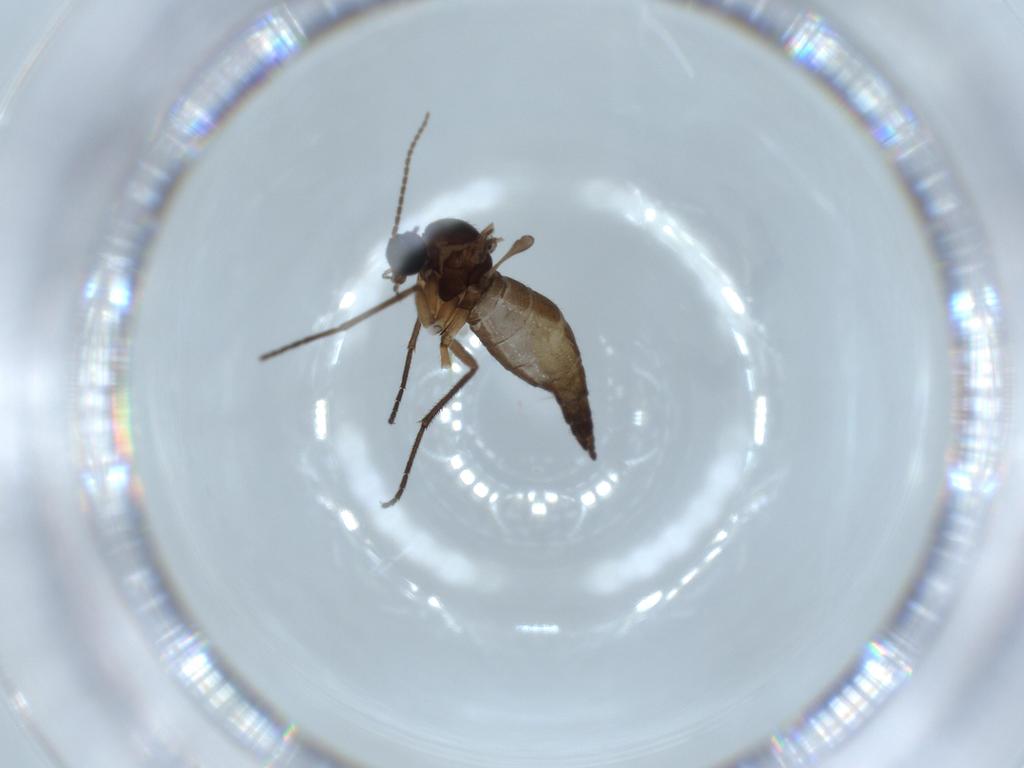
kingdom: Animalia
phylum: Arthropoda
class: Insecta
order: Diptera
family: Sciaridae
